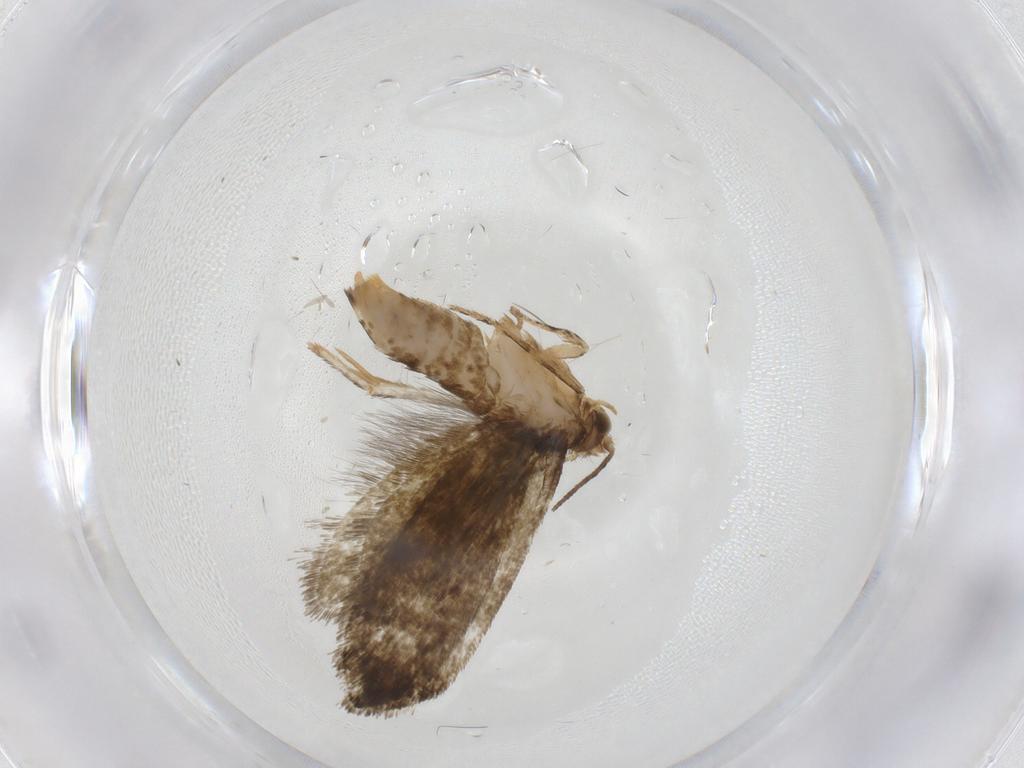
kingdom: Animalia
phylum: Arthropoda
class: Insecta
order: Lepidoptera
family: Crambidae
